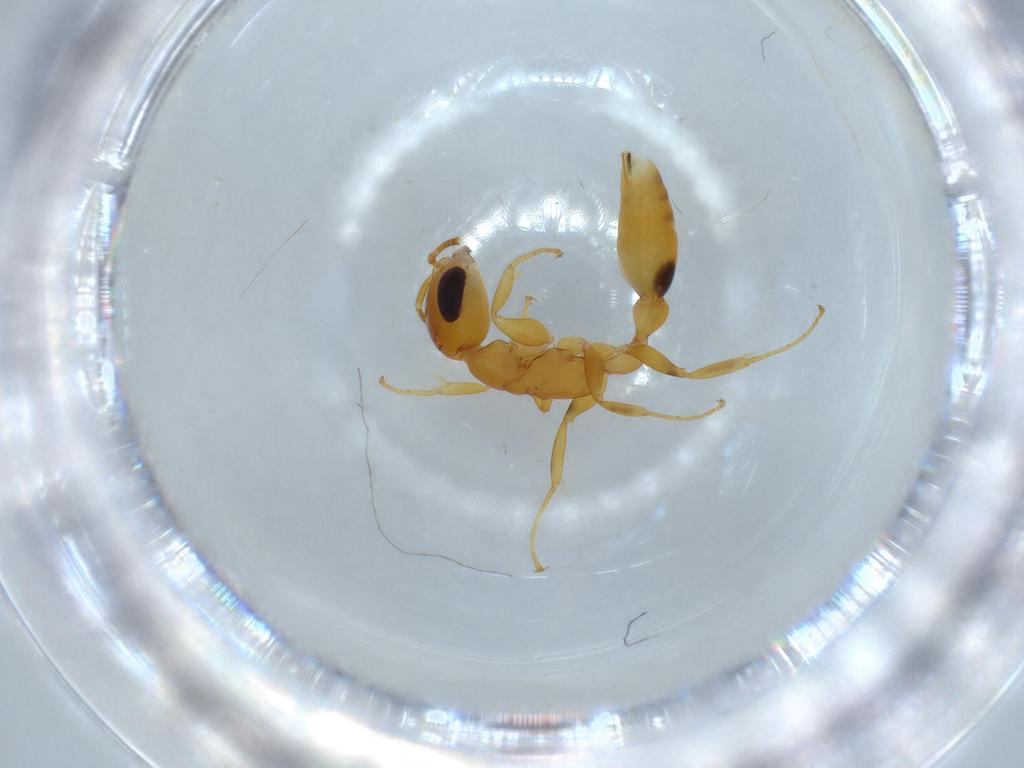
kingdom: Animalia
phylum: Arthropoda
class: Insecta
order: Hymenoptera
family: Formicidae
